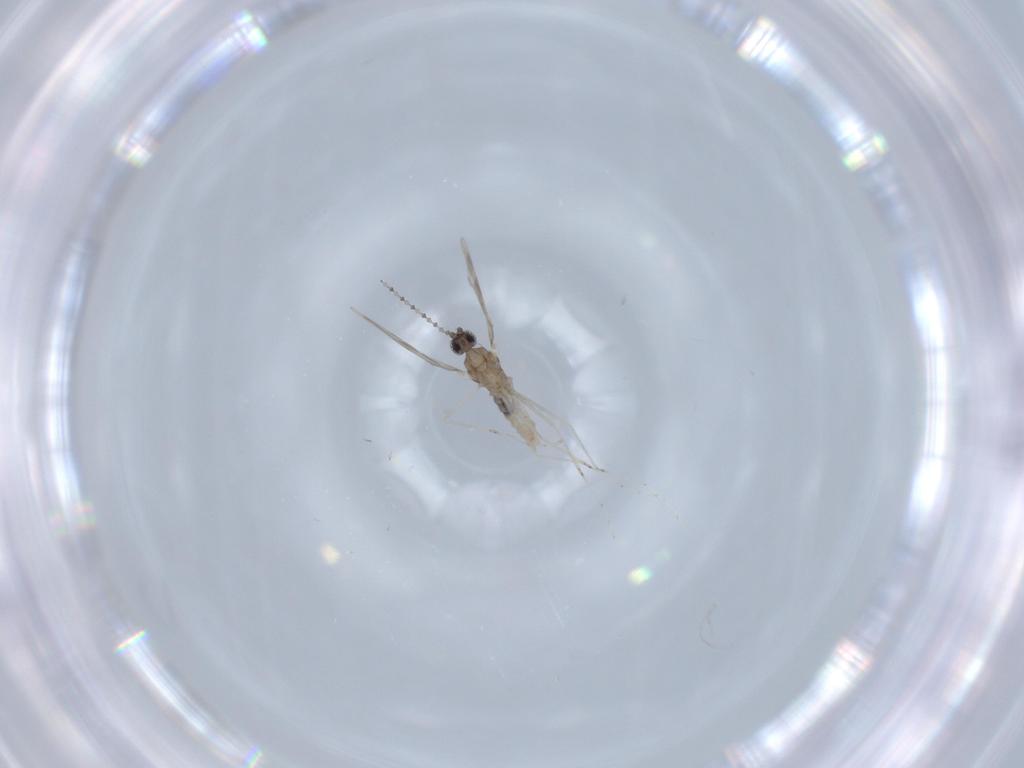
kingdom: Animalia
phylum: Arthropoda
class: Insecta
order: Diptera
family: Cecidomyiidae
